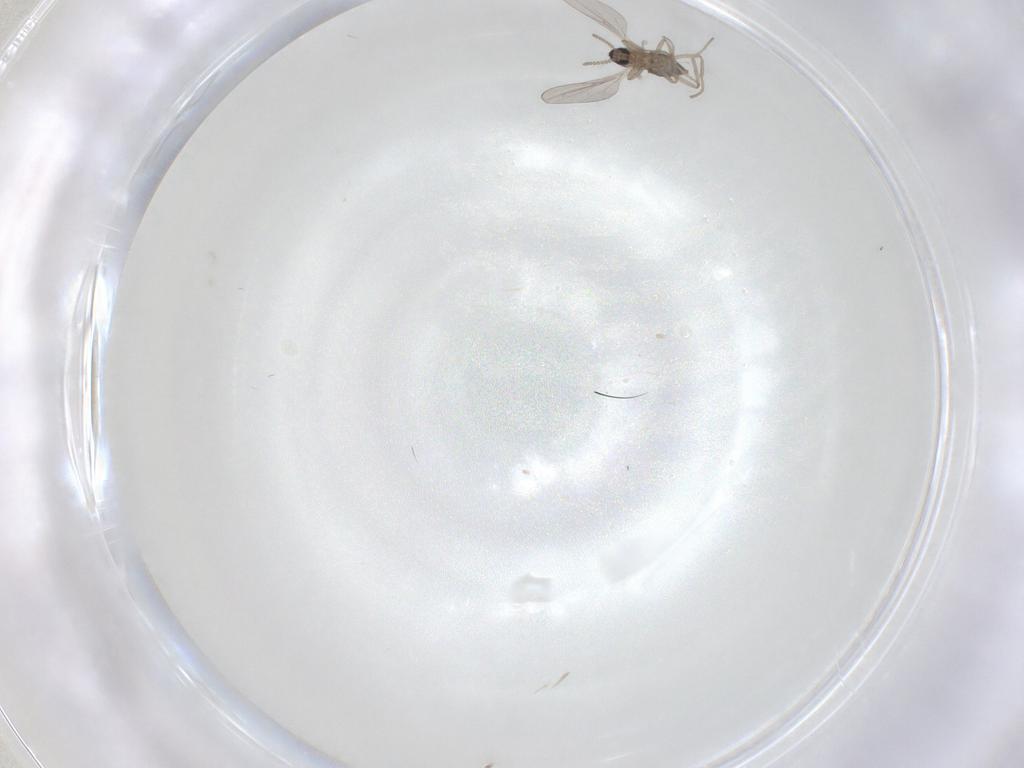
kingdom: Animalia
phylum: Arthropoda
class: Insecta
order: Diptera
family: Cecidomyiidae
